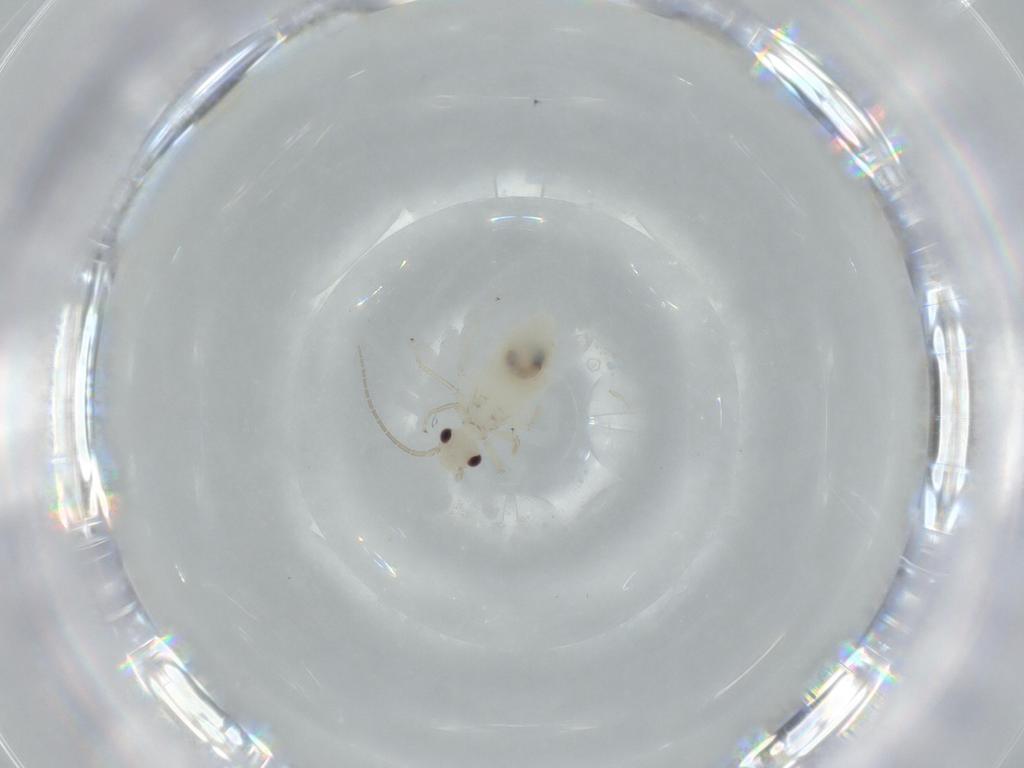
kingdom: Animalia
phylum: Arthropoda
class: Insecta
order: Psocodea
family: Caeciliusidae
